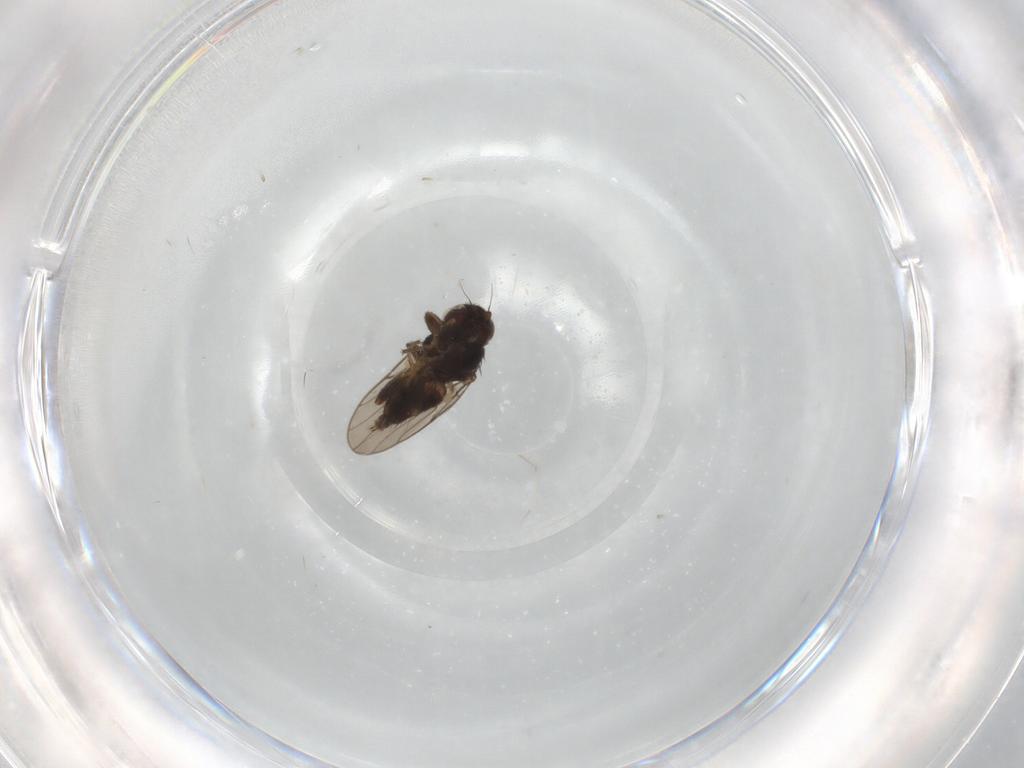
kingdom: Animalia
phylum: Arthropoda
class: Insecta
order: Diptera
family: Chloropidae
